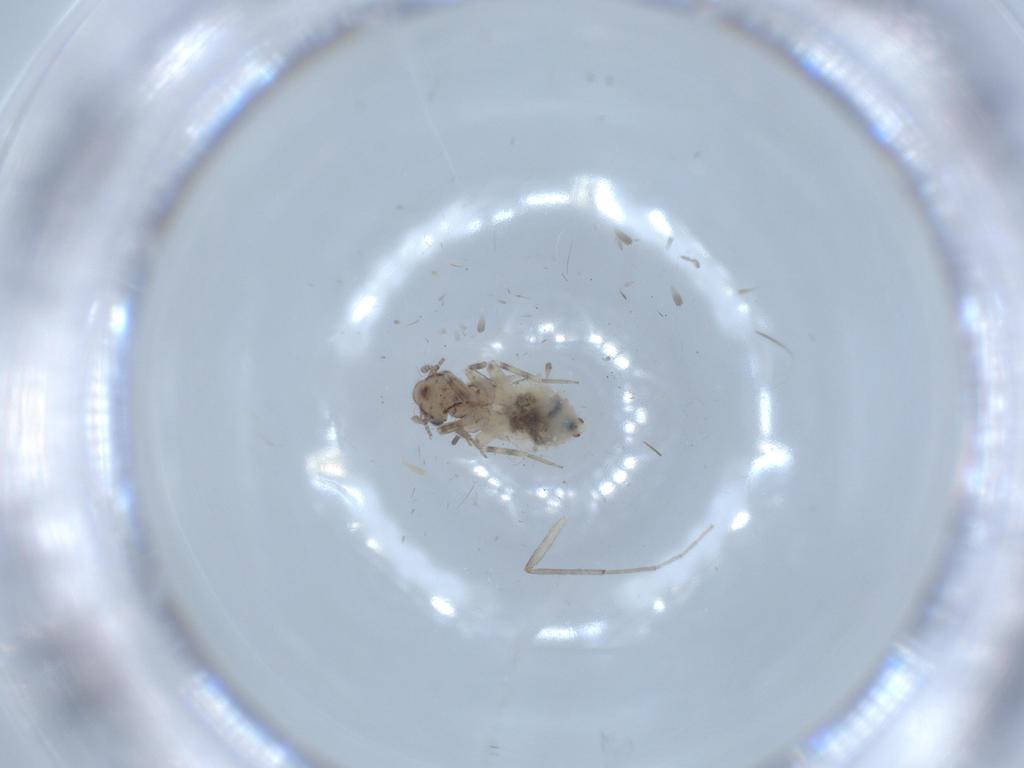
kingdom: Animalia
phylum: Arthropoda
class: Insecta
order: Psocodea
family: Lepidopsocidae
